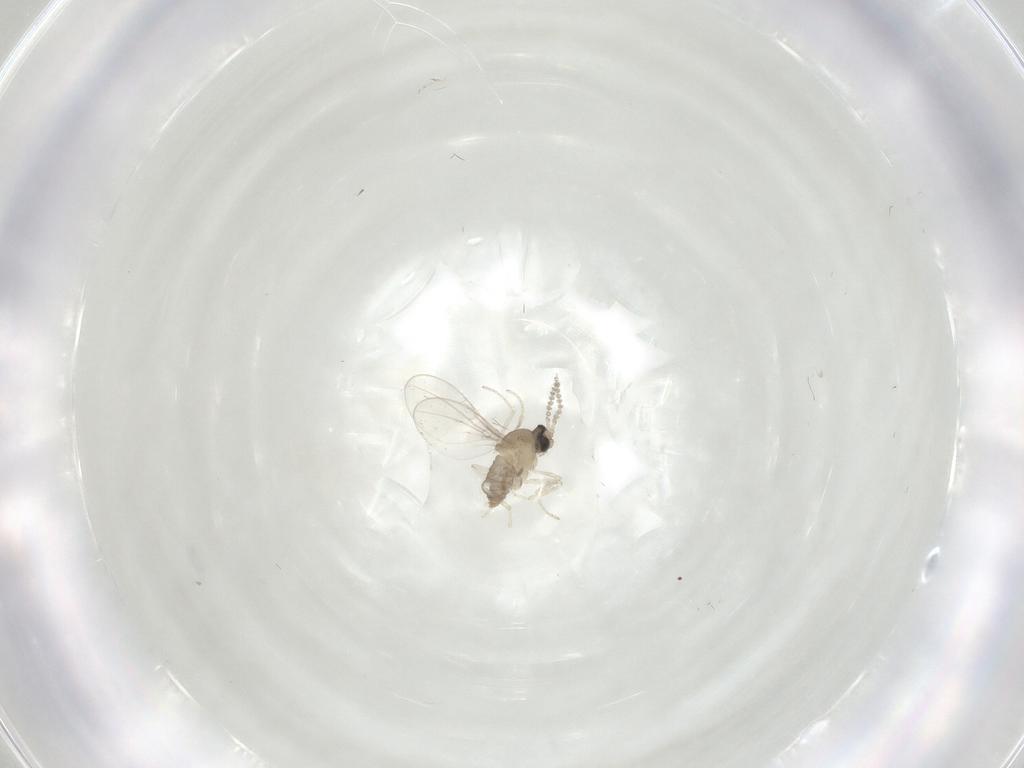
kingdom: Animalia
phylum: Arthropoda
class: Insecta
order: Diptera
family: Cecidomyiidae
